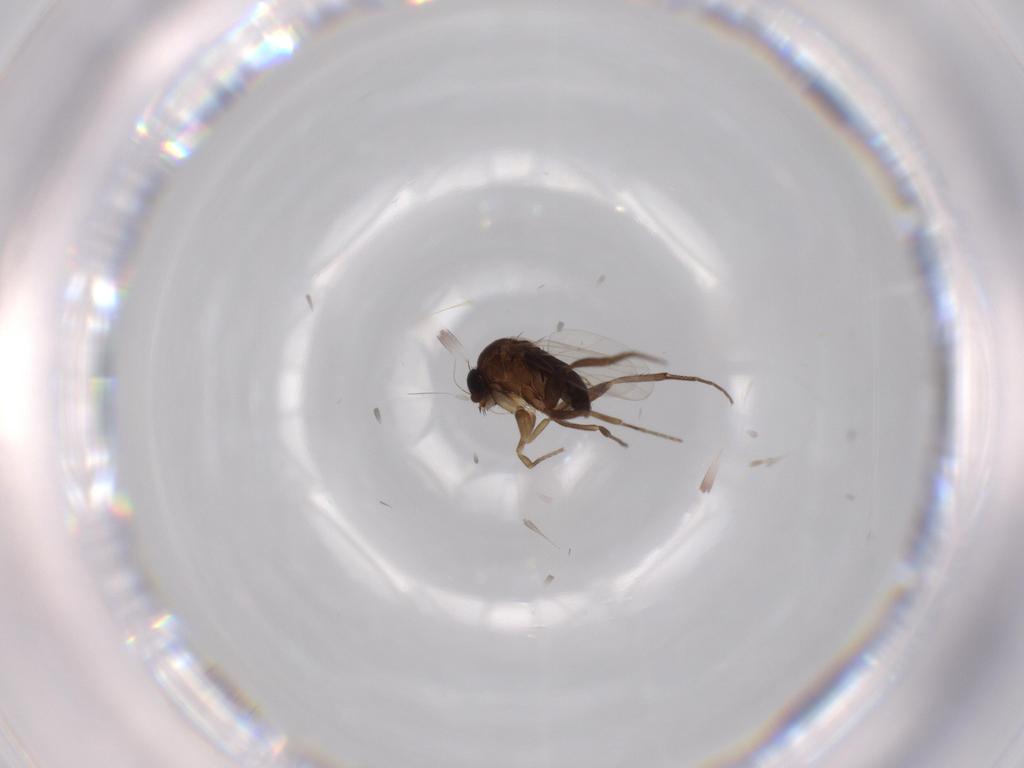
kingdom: Animalia
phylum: Arthropoda
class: Insecta
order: Diptera
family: Phoridae
